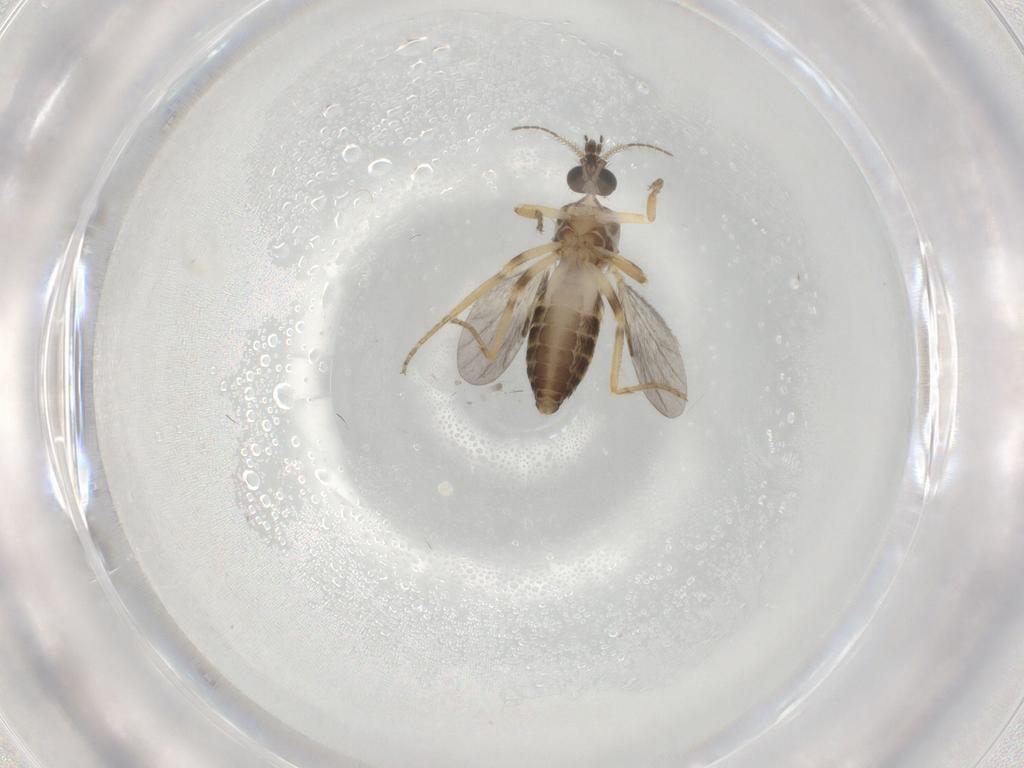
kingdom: Animalia
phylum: Arthropoda
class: Insecta
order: Diptera
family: Ceratopogonidae
